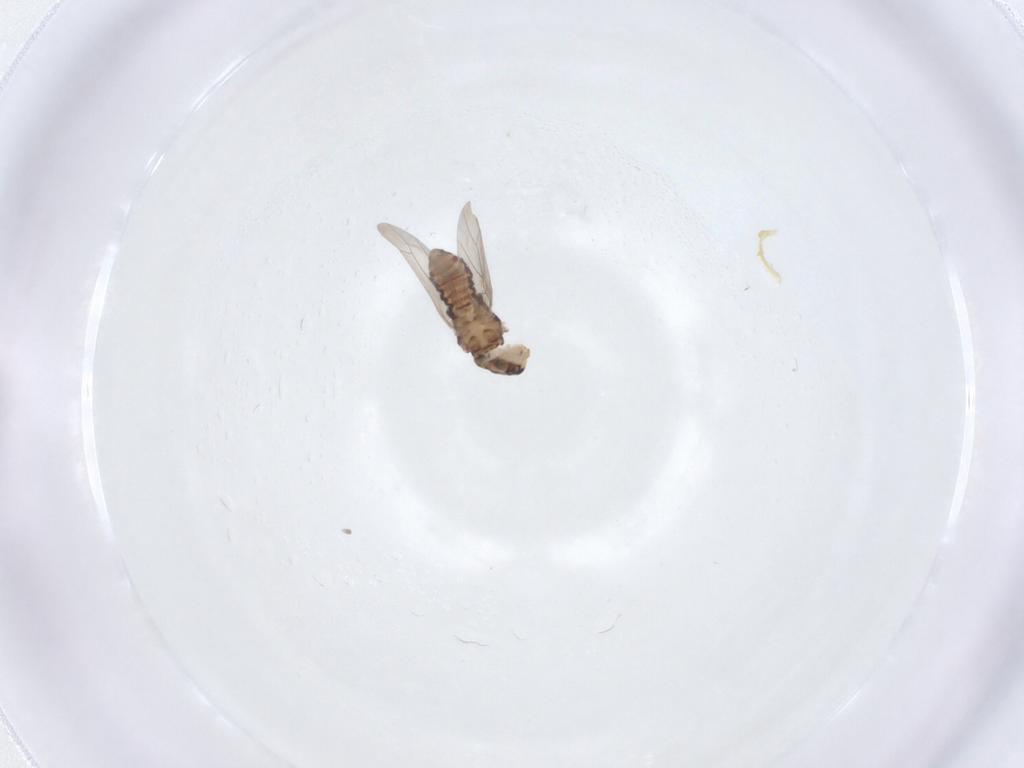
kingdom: Animalia
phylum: Arthropoda
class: Insecta
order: Psocodea
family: Lepidopsocidae
